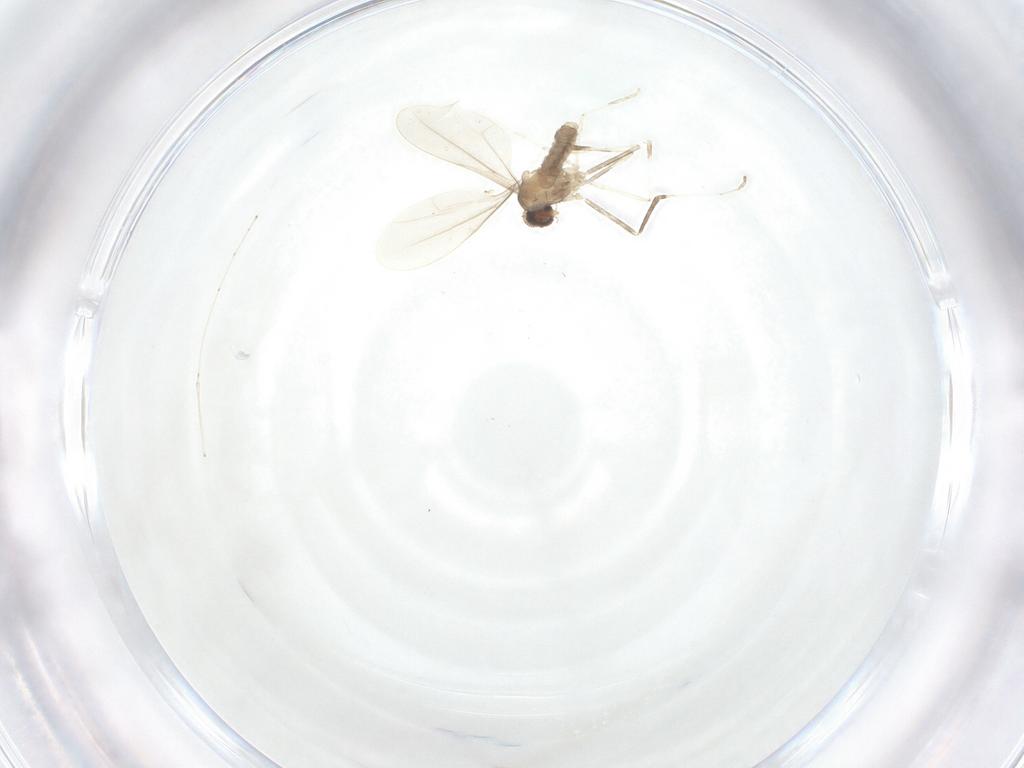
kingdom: Animalia
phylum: Arthropoda
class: Insecta
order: Diptera
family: Cecidomyiidae
